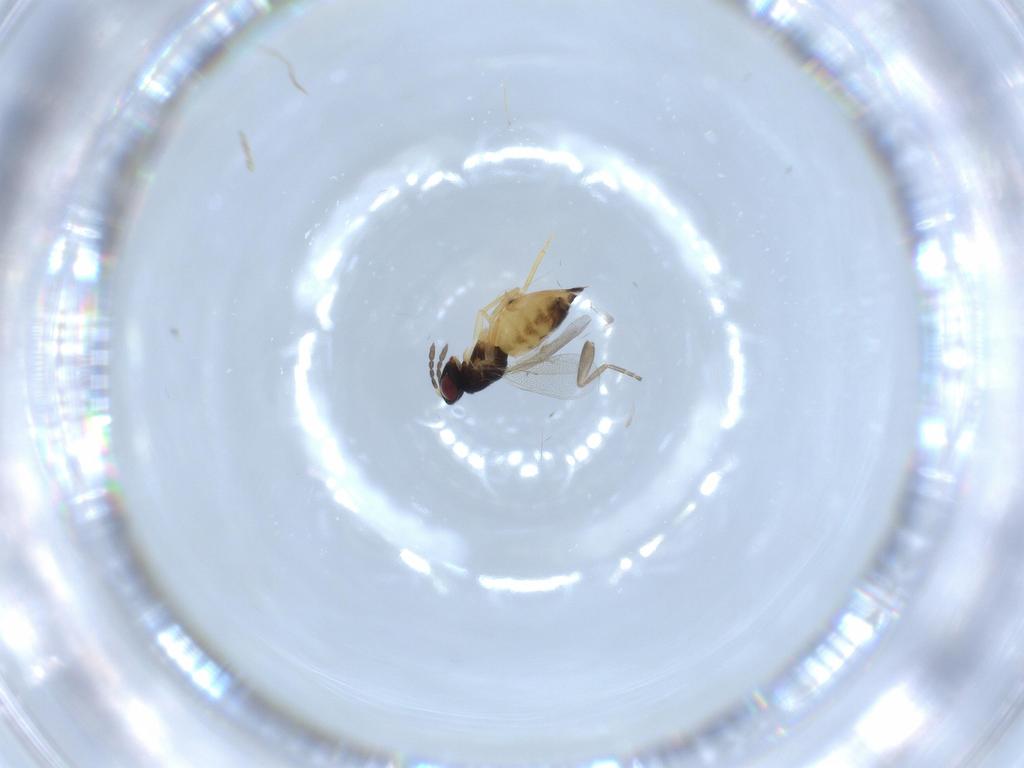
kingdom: Animalia
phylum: Arthropoda
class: Insecta
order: Hymenoptera
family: Eulophidae
